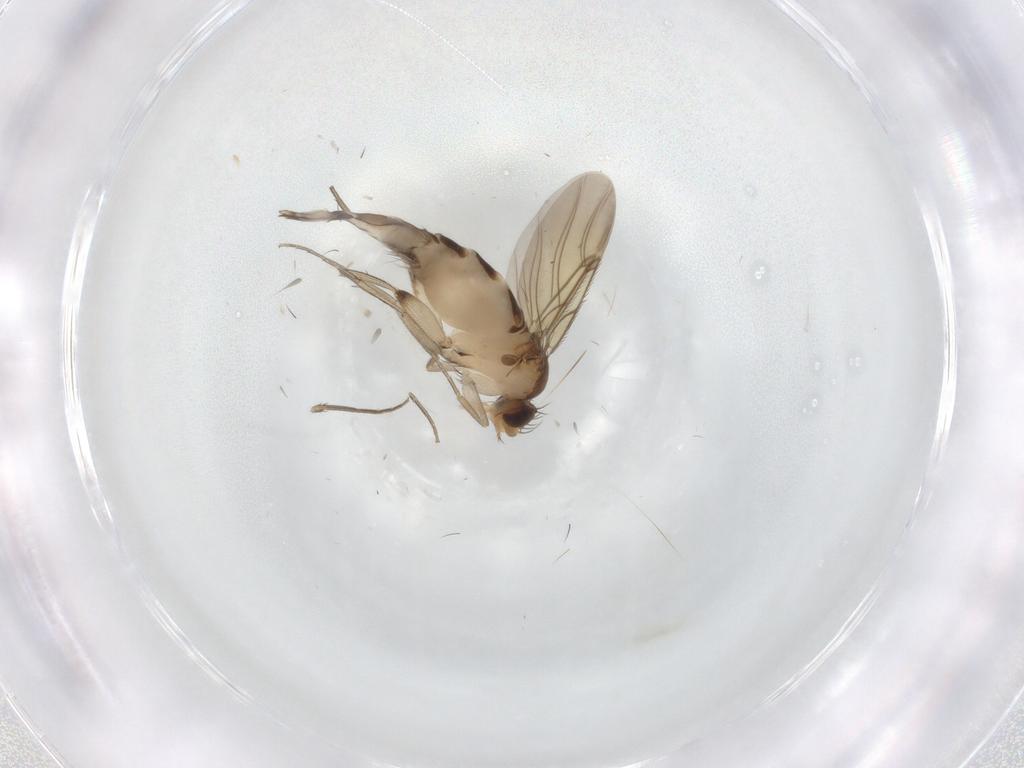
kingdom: Animalia
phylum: Arthropoda
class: Insecta
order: Diptera
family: Phoridae
